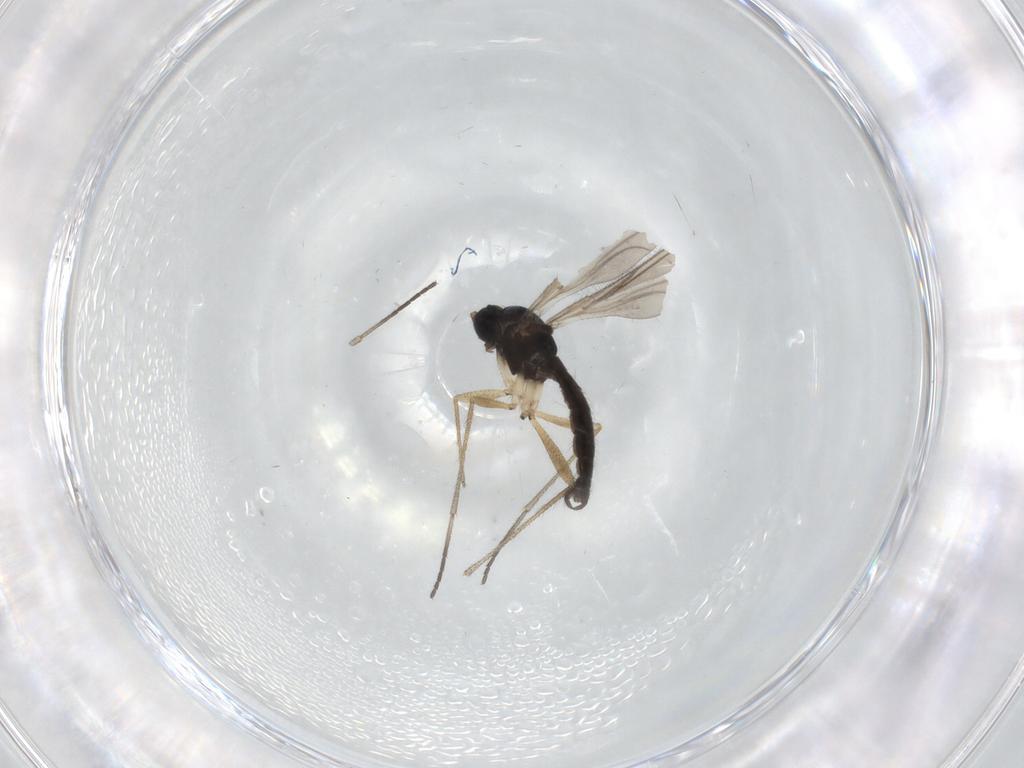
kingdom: Animalia
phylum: Arthropoda
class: Insecta
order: Diptera
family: Sciaridae
